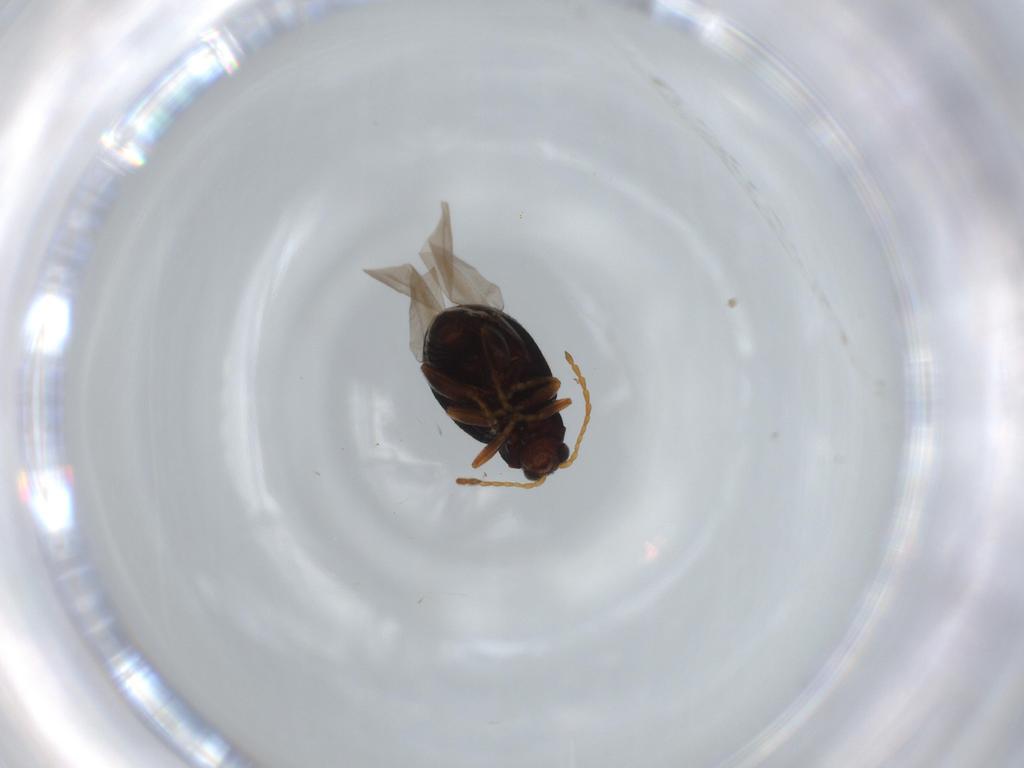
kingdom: Animalia
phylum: Arthropoda
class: Insecta
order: Coleoptera
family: Chrysomelidae
